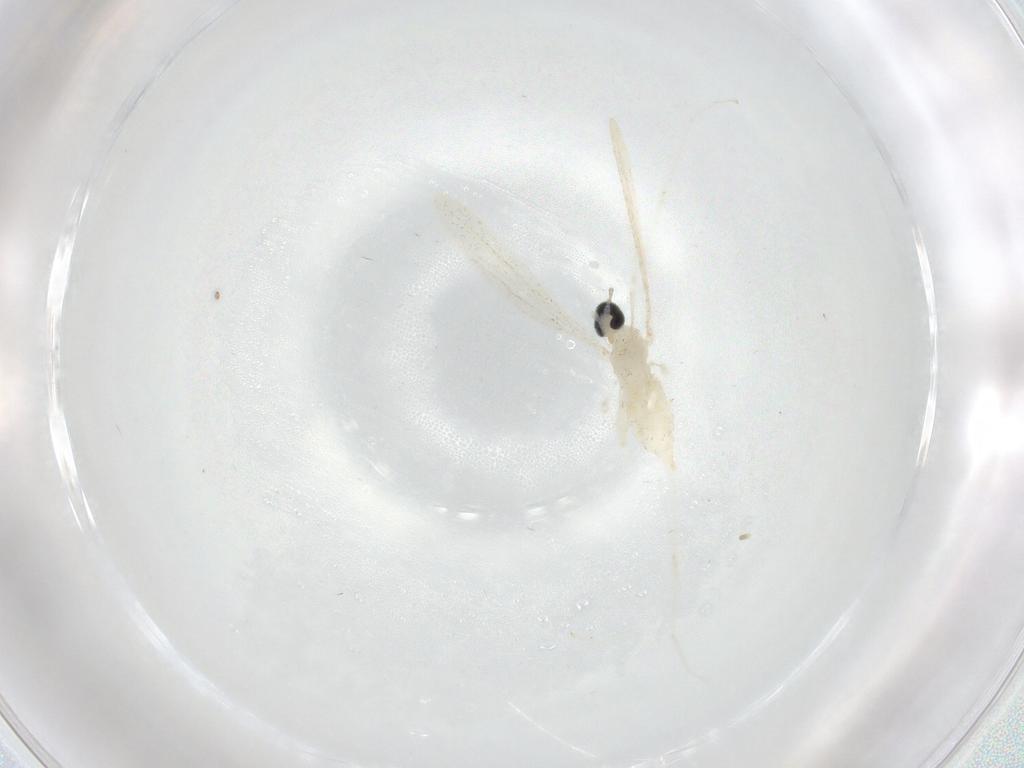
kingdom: Animalia
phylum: Arthropoda
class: Insecta
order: Diptera
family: Cecidomyiidae
